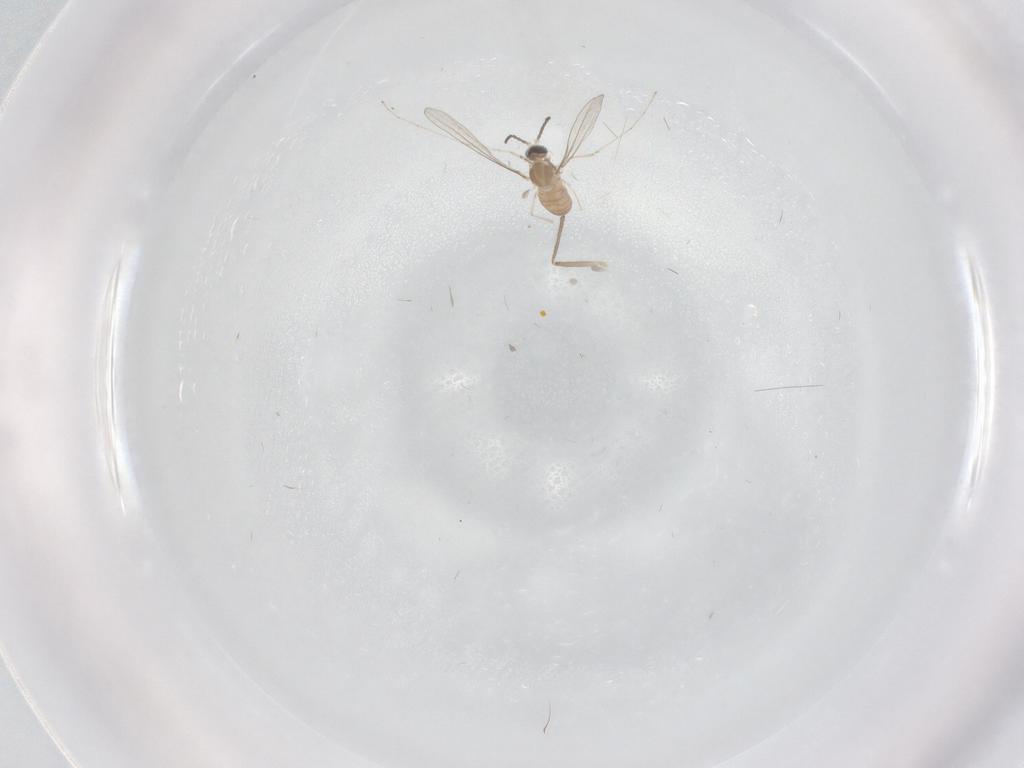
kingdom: Animalia
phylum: Arthropoda
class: Insecta
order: Diptera
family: Cecidomyiidae
